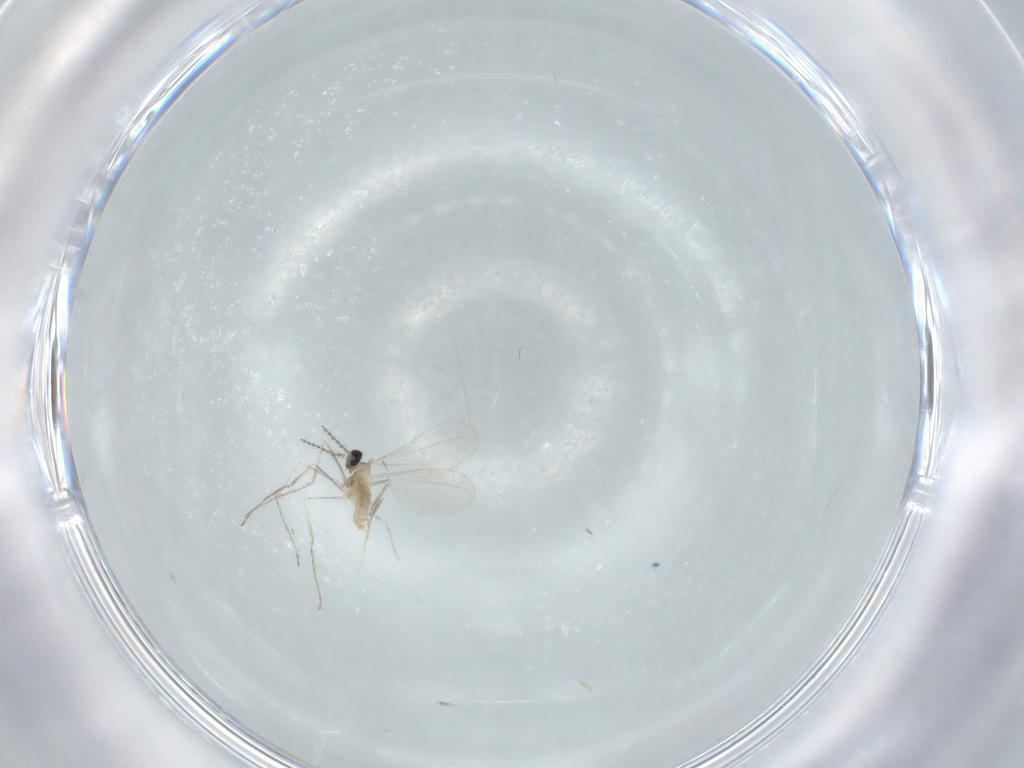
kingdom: Animalia
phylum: Arthropoda
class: Insecta
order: Diptera
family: Cecidomyiidae
